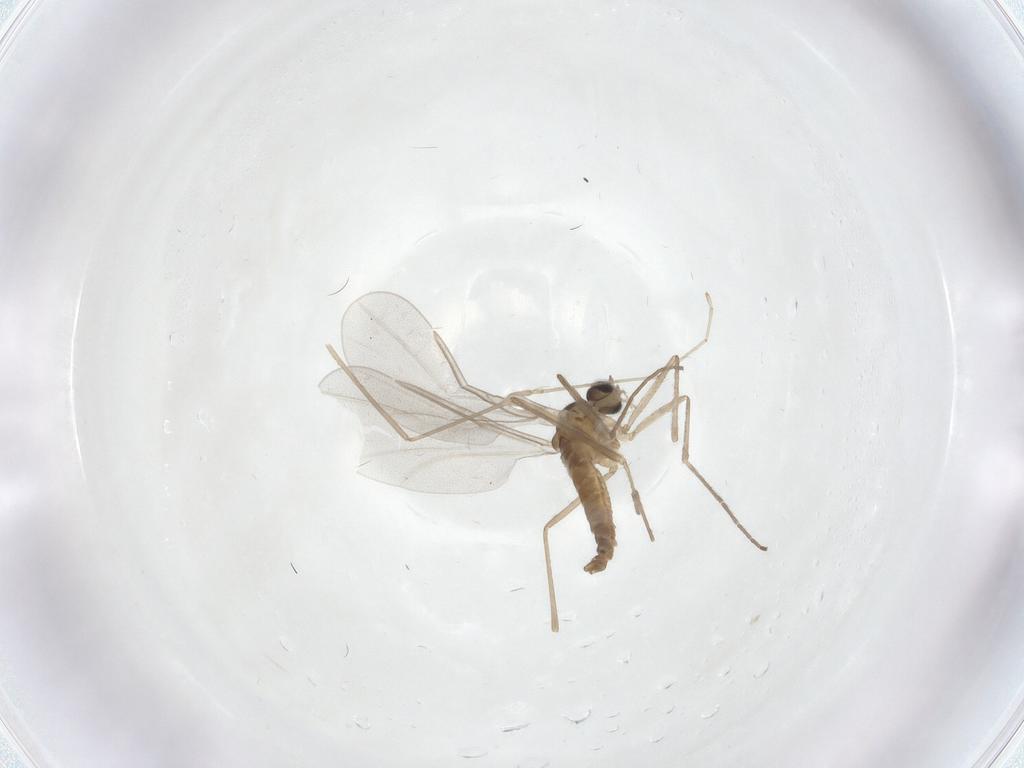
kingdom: Animalia
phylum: Arthropoda
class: Insecta
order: Diptera
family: Cecidomyiidae
